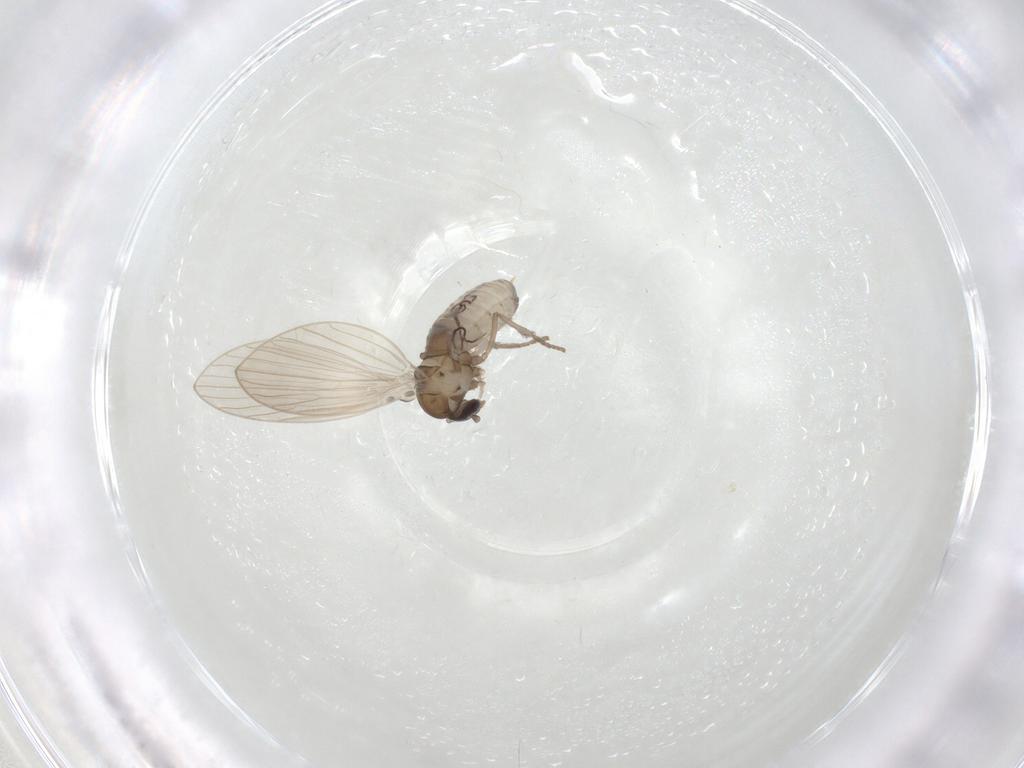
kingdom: Animalia
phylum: Arthropoda
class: Insecta
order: Diptera
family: Psychodidae
